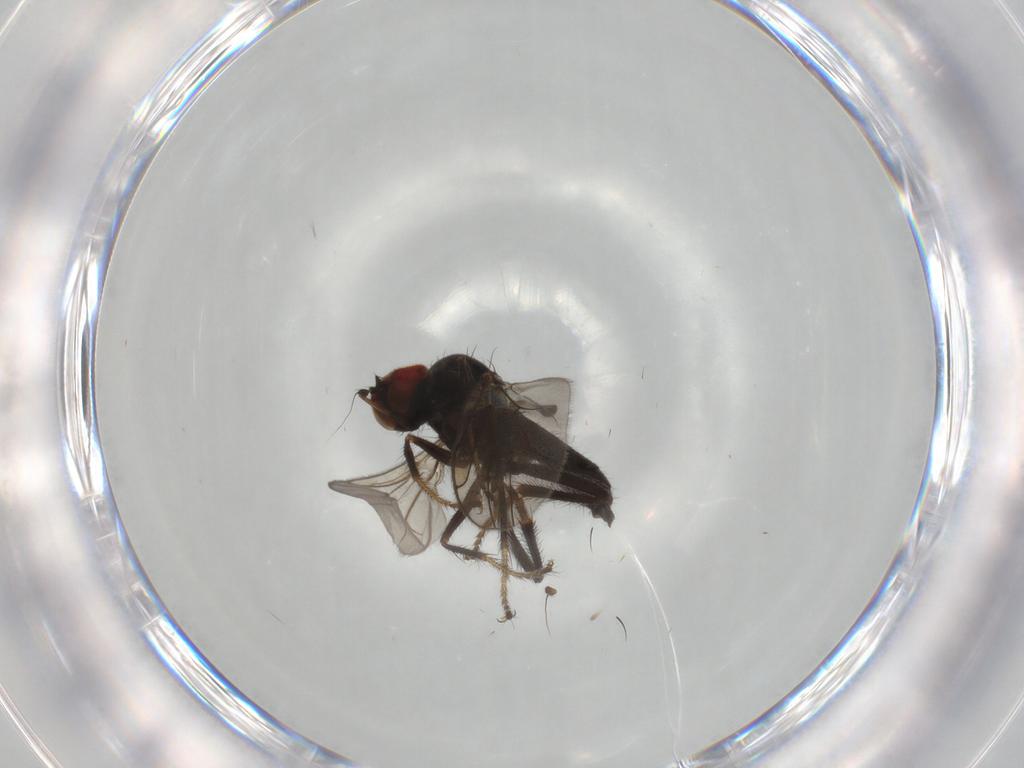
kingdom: Animalia
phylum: Arthropoda
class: Insecta
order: Diptera
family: Hybotidae
